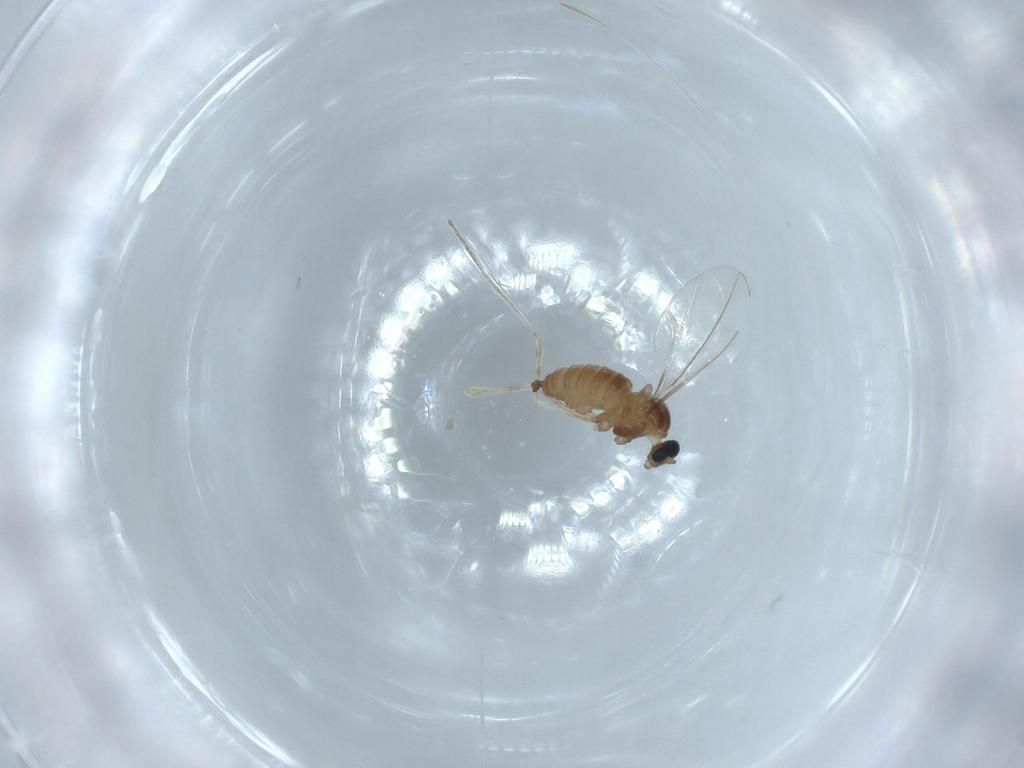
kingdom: Animalia
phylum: Arthropoda
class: Insecta
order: Diptera
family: Cecidomyiidae
